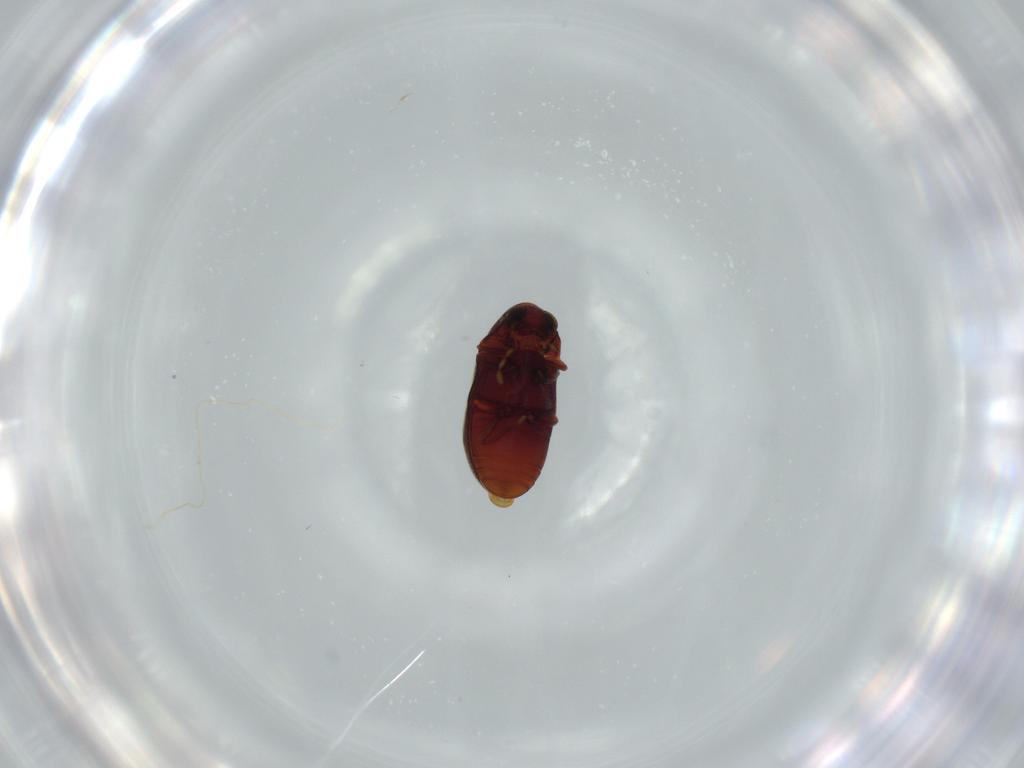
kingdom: Animalia
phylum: Arthropoda
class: Insecta
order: Coleoptera
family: Ptinidae
